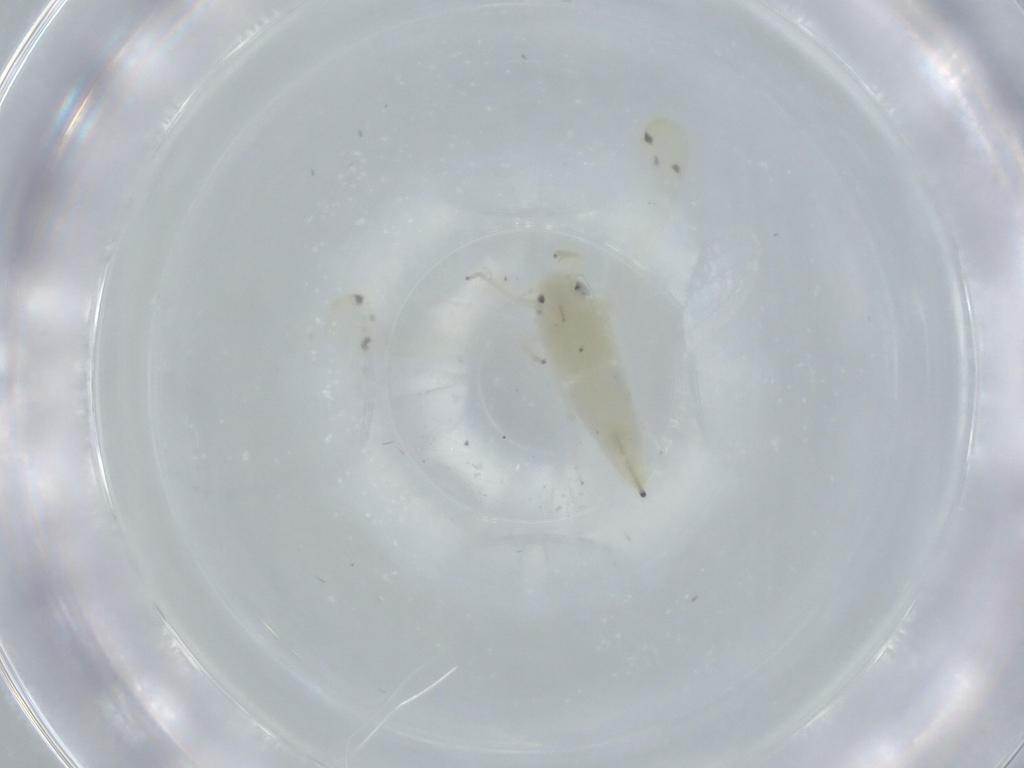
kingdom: Animalia
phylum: Arthropoda
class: Insecta
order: Hemiptera
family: Cicadellidae
